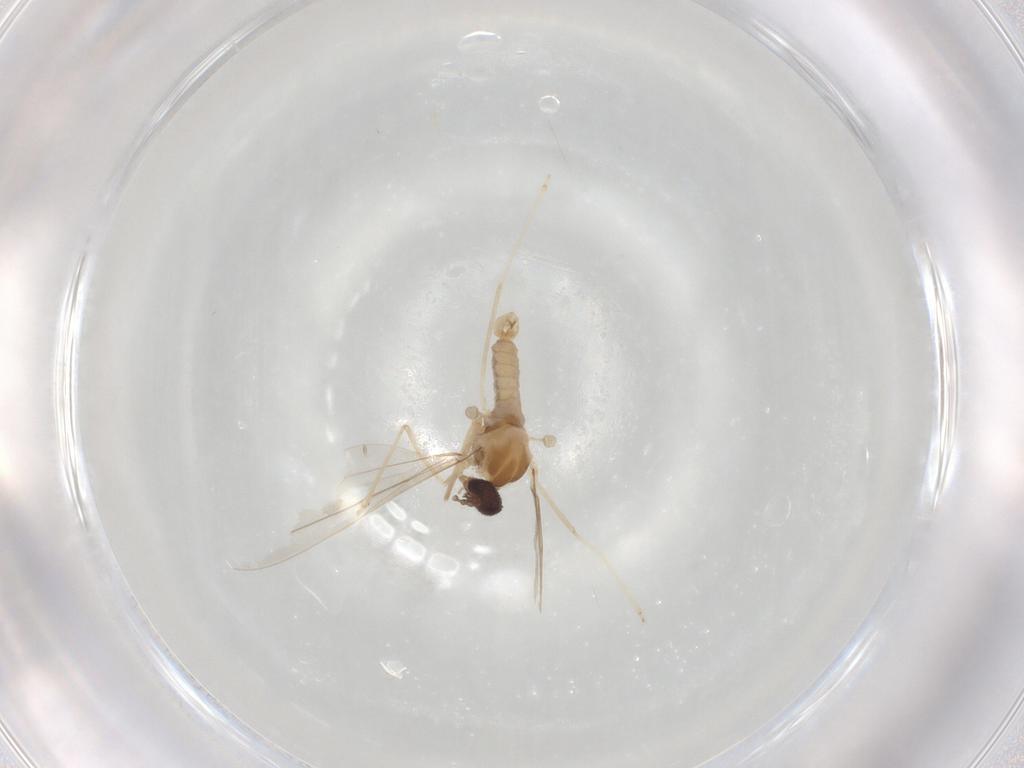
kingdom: Animalia
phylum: Arthropoda
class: Insecta
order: Diptera
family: Cecidomyiidae
